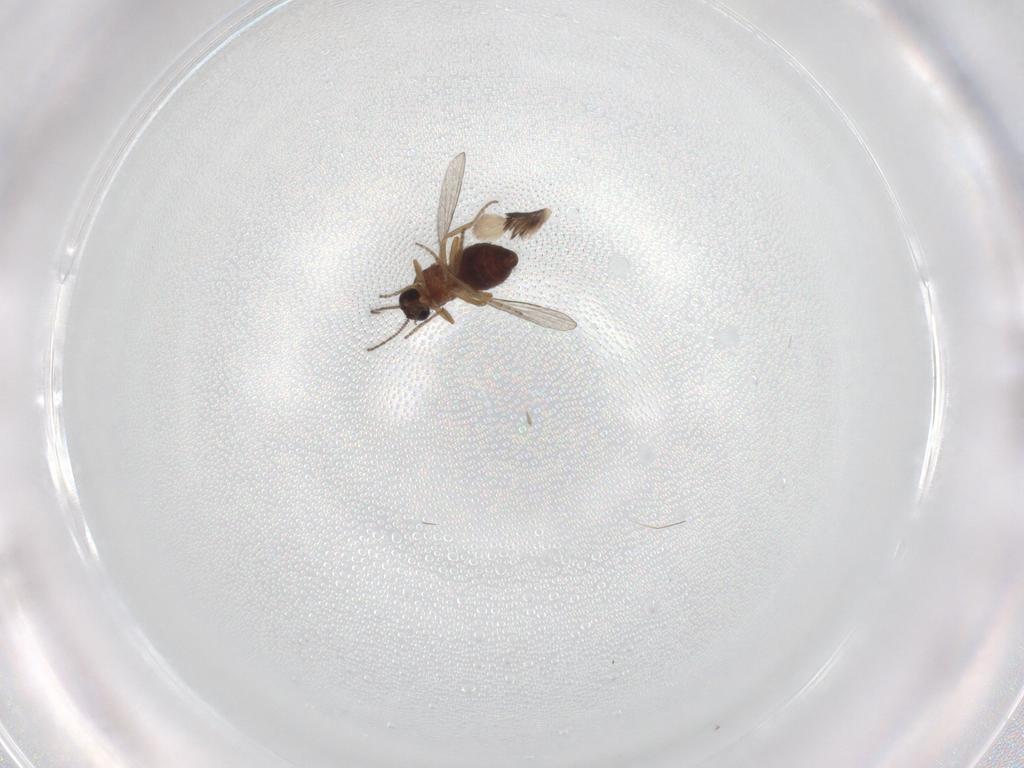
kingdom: Animalia
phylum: Arthropoda
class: Insecta
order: Diptera
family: Ceratopogonidae
